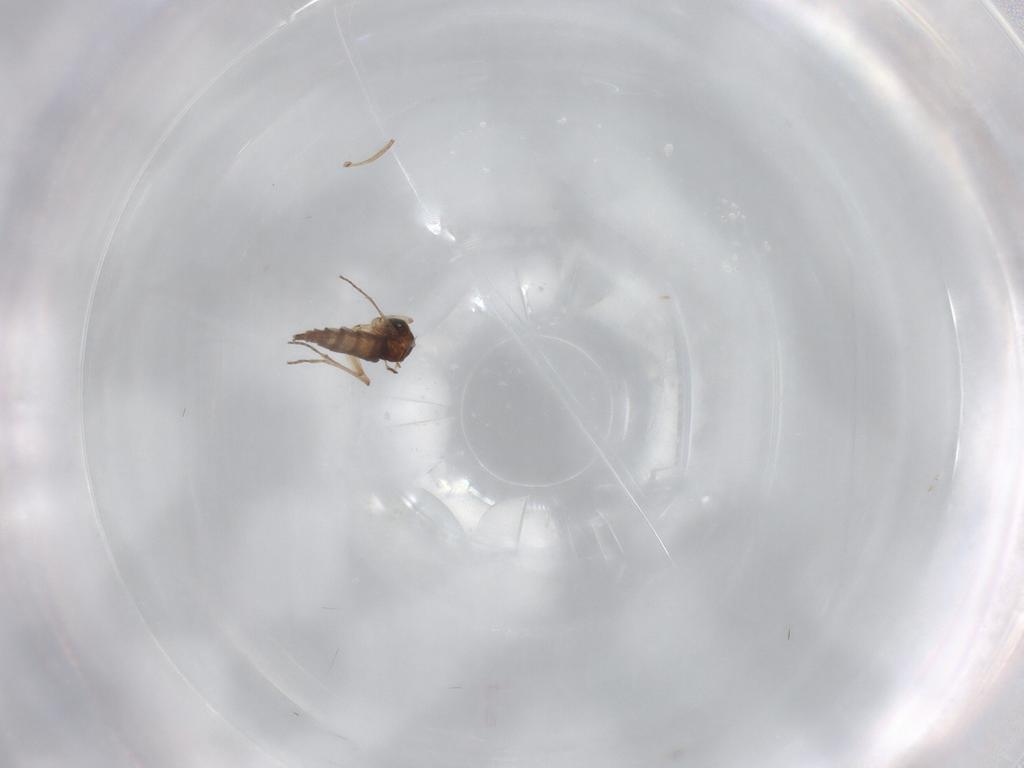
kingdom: Animalia
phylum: Arthropoda
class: Insecta
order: Diptera
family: Sciaridae
